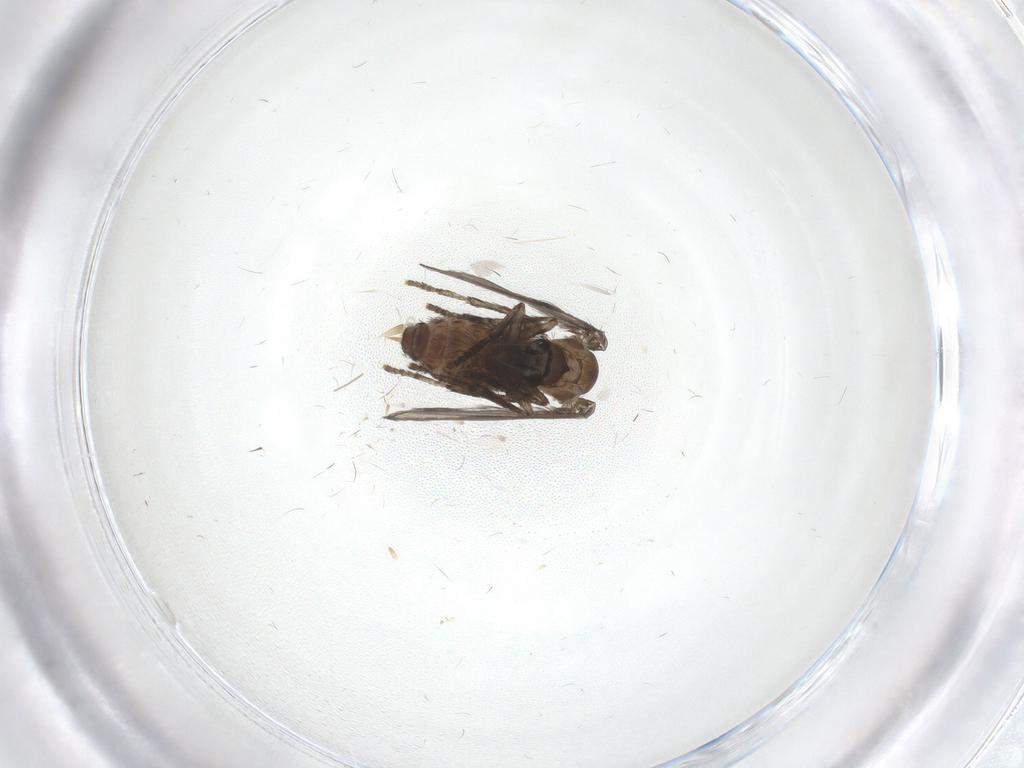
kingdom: Animalia
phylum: Arthropoda
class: Insecta
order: Diptera
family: Psychodidae
